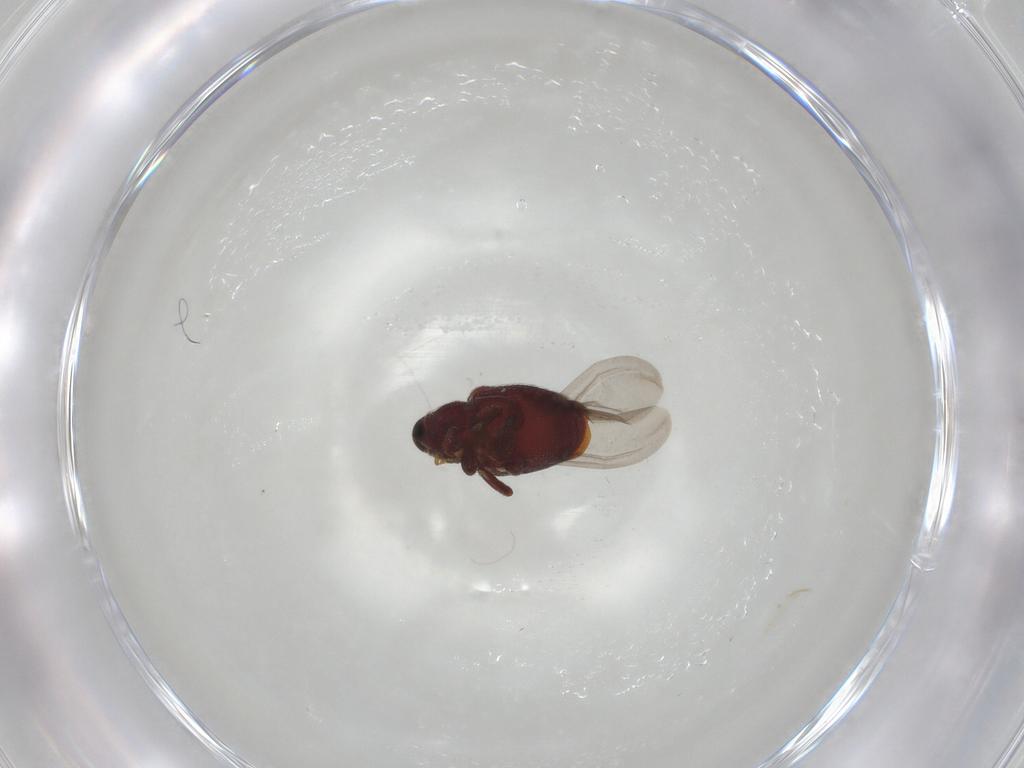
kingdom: Animalia
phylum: Arthropoda
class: Insecta
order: Coleoptera
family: Curculionidae
